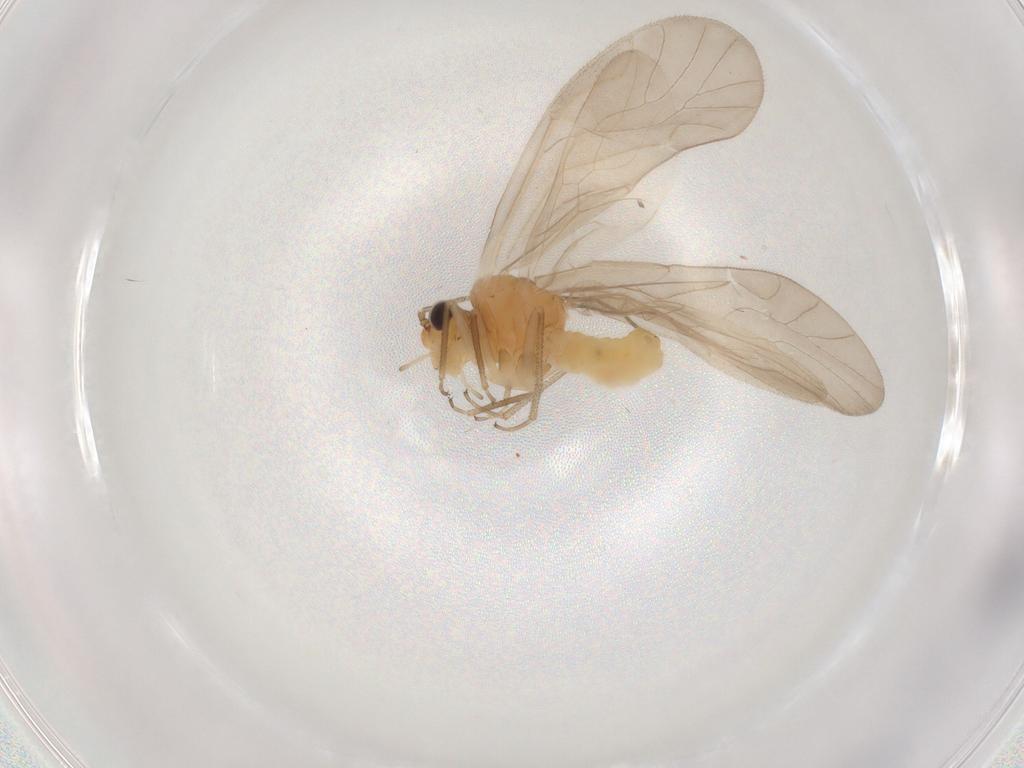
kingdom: Animalia
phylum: Arthropoda
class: Insecta
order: Psocodea
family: Caeciliusidae
